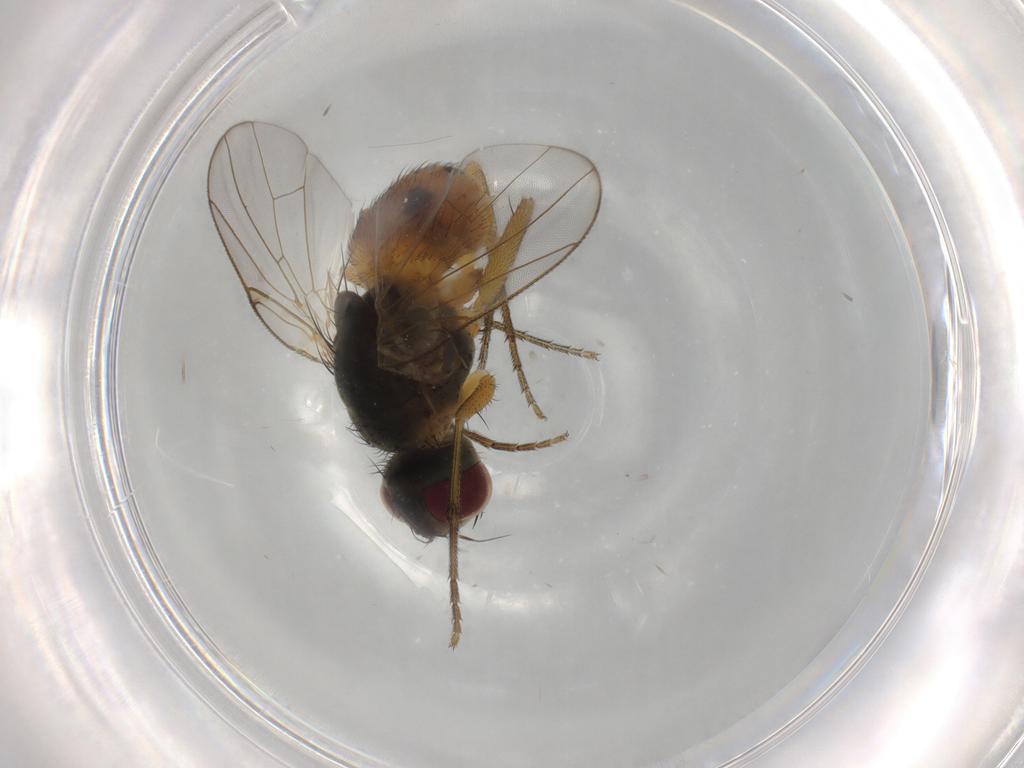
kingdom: Animalia
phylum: Arthropoda
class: Insecta
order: Diptera
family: Muscidae
